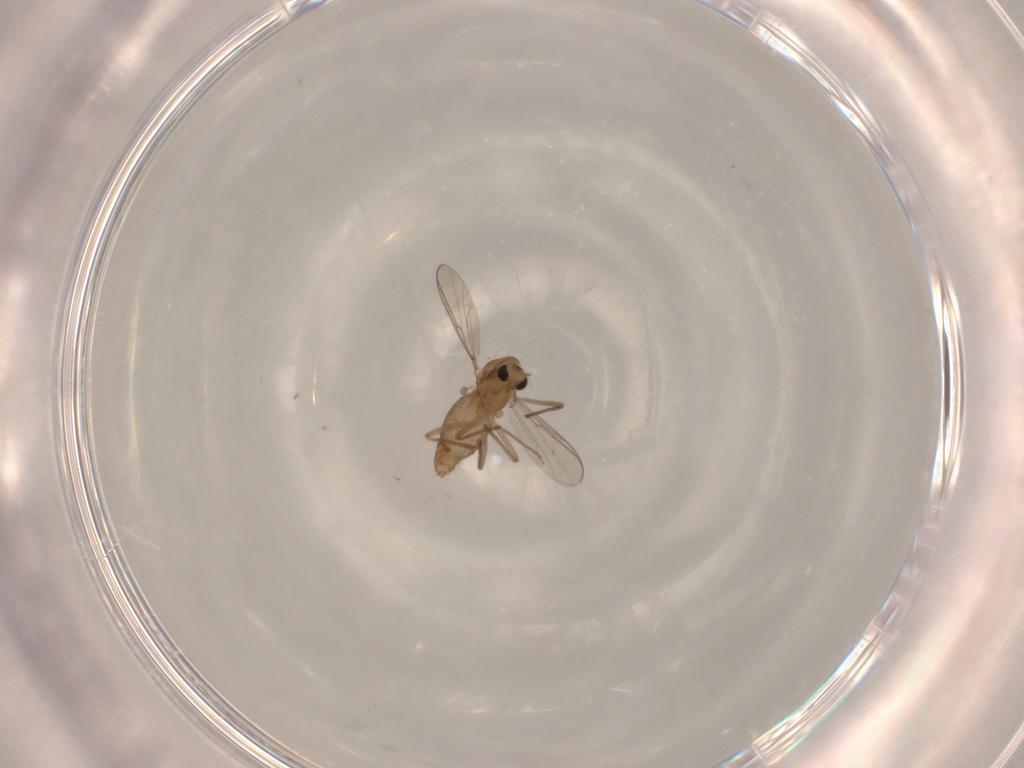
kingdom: Animalia
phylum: Arthropoda
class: Insecta
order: Diptera
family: Chironomidae
